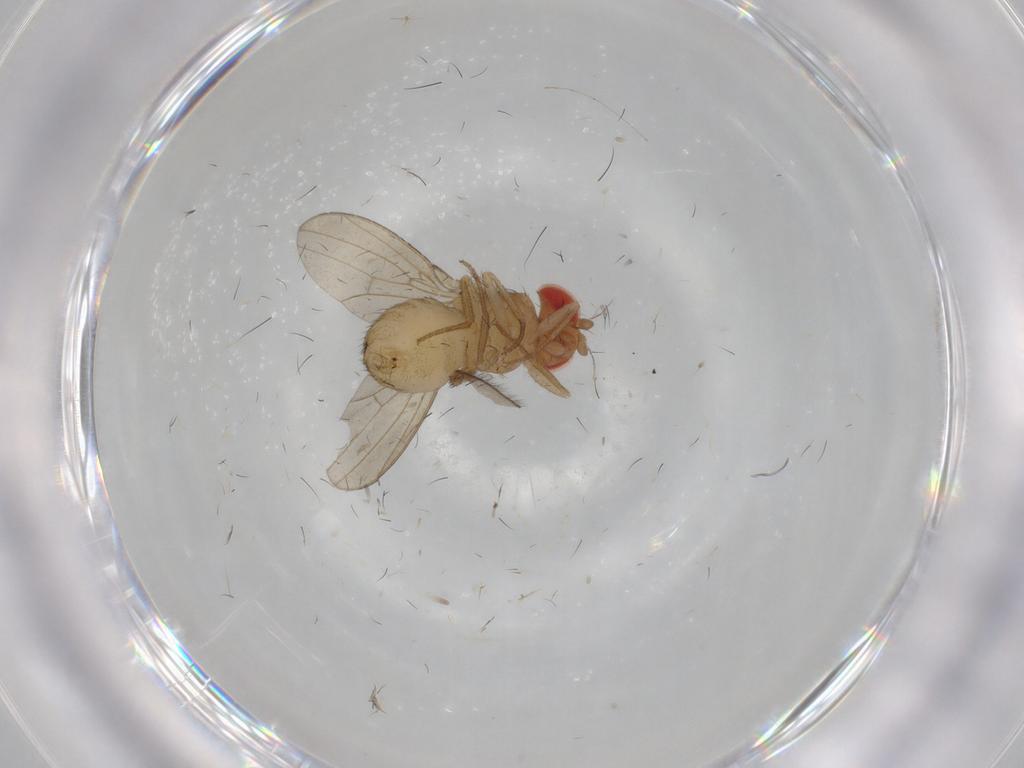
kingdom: Animalia
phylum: Arthropoda
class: Insecta
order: Diptera
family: Drosophilidae
